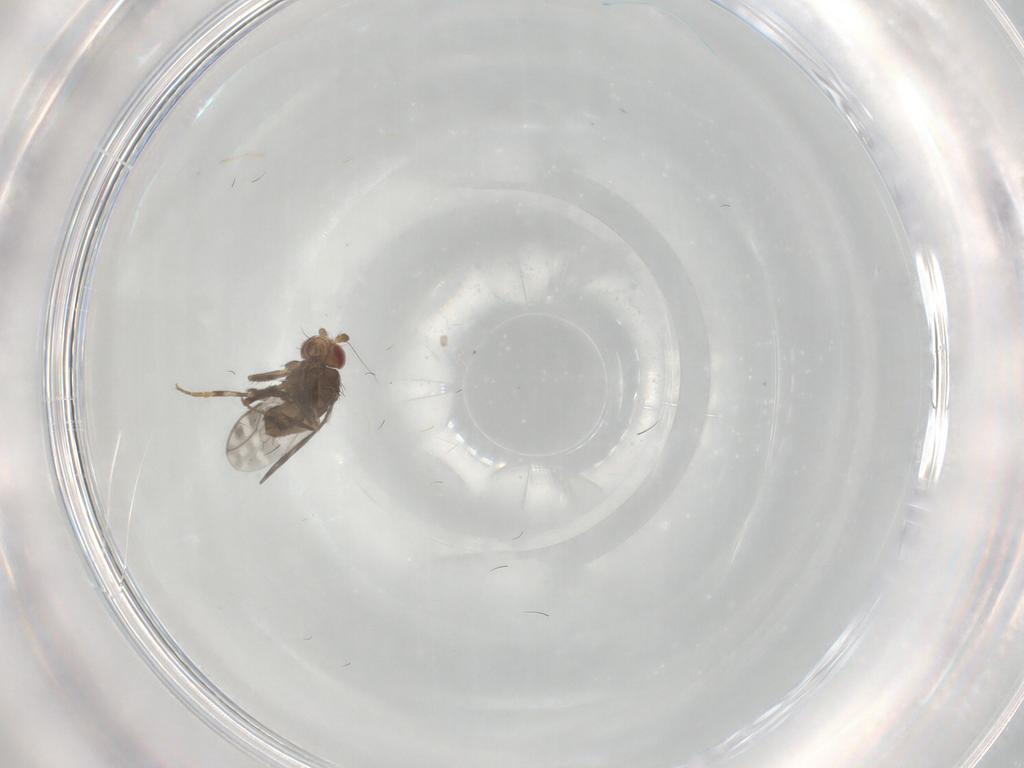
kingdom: Animalia
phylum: Arthropoda
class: Insecta
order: Diptera
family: Sphaeroceridae
